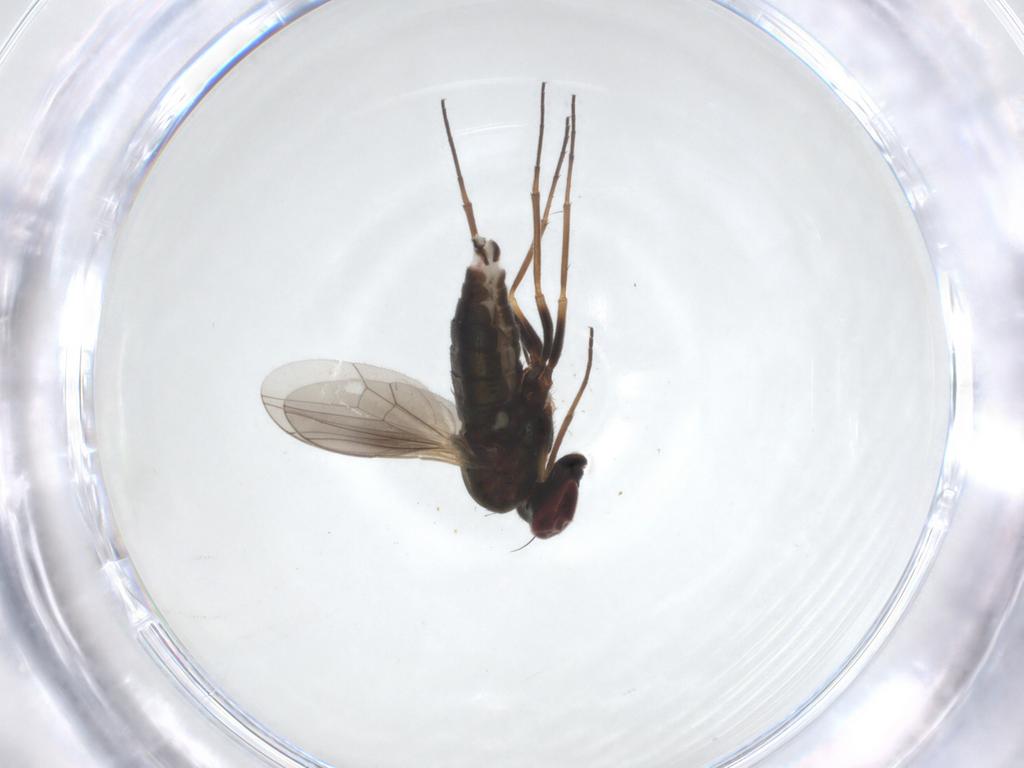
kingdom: Animalia
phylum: Arthropoda
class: Insecta
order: Diptera
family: Dolichopodidae
